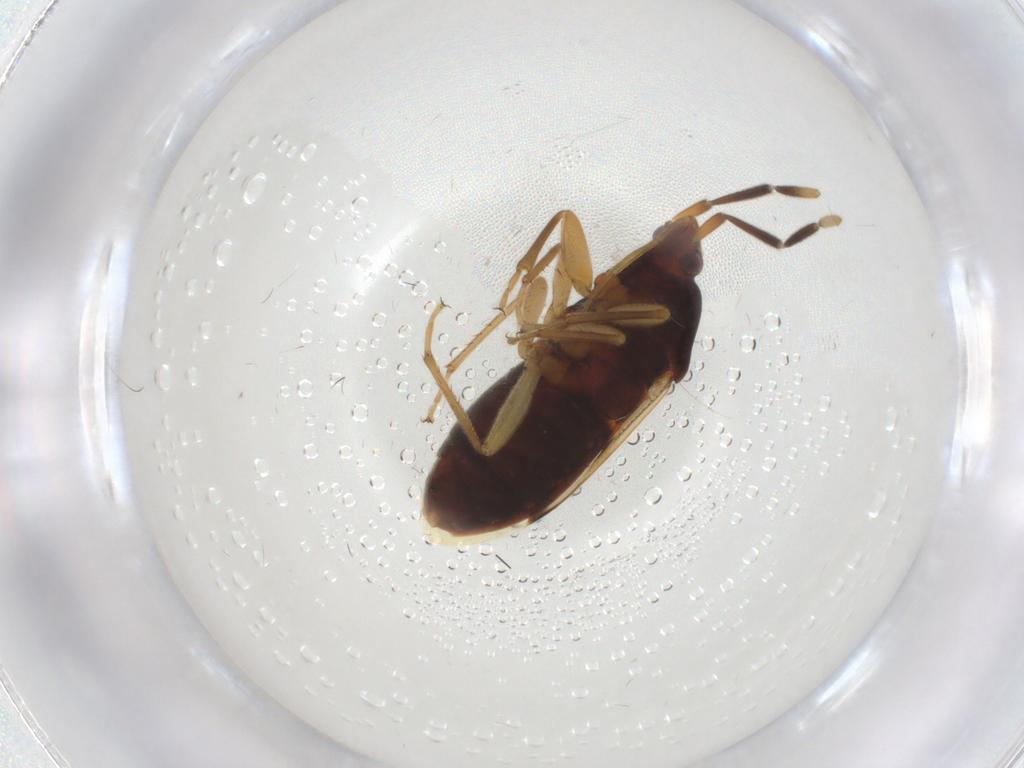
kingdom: Animalia
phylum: Arthropoda
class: Insecta
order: Hemiptera
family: Rhyparochromidae
